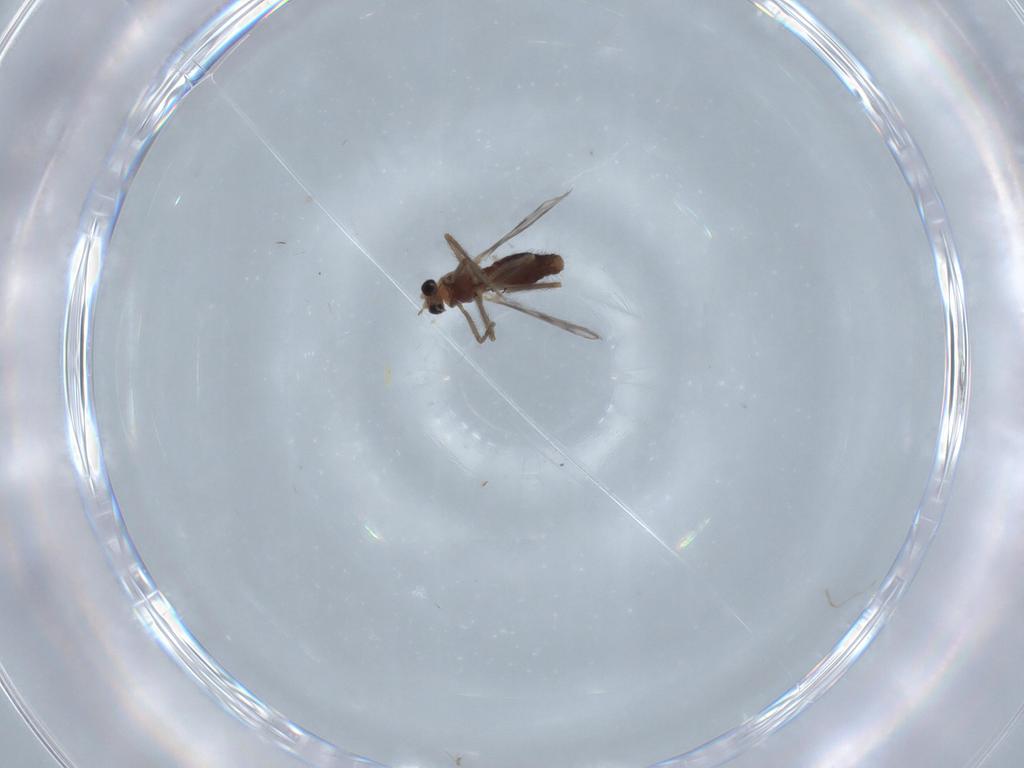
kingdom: Animalia
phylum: Arthropoda
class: Insecta
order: Diptera
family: Chironomidae
